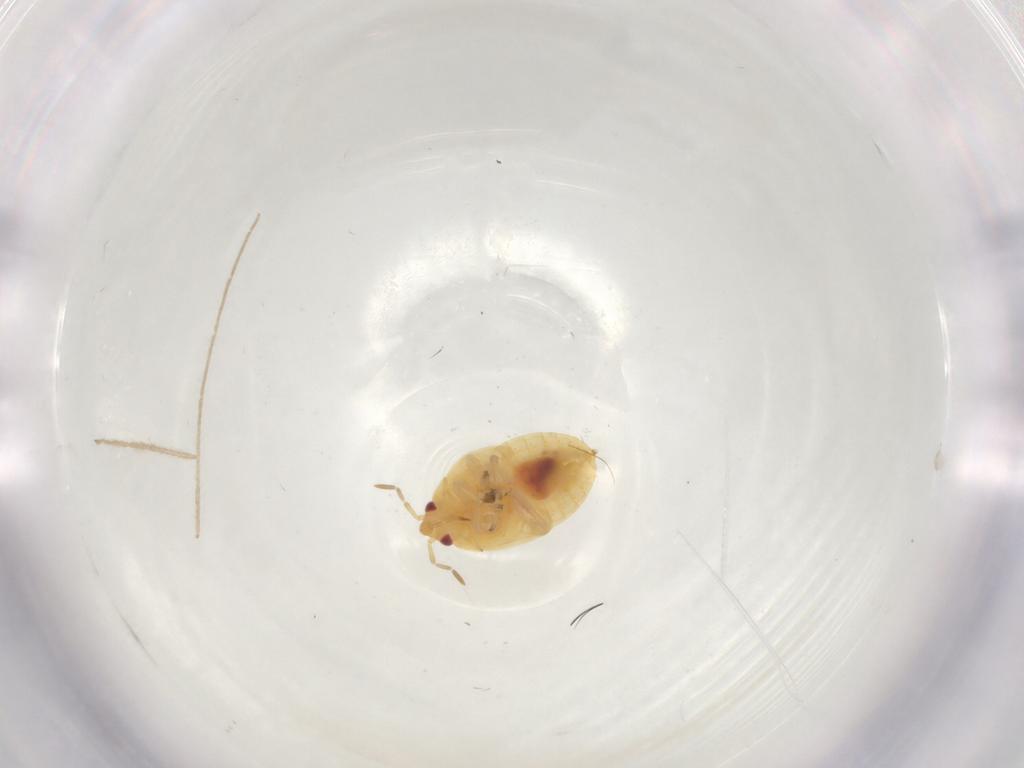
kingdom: Animalia
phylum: Arthropoda
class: Insecta
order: Hemiptera
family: Anthocoridae
